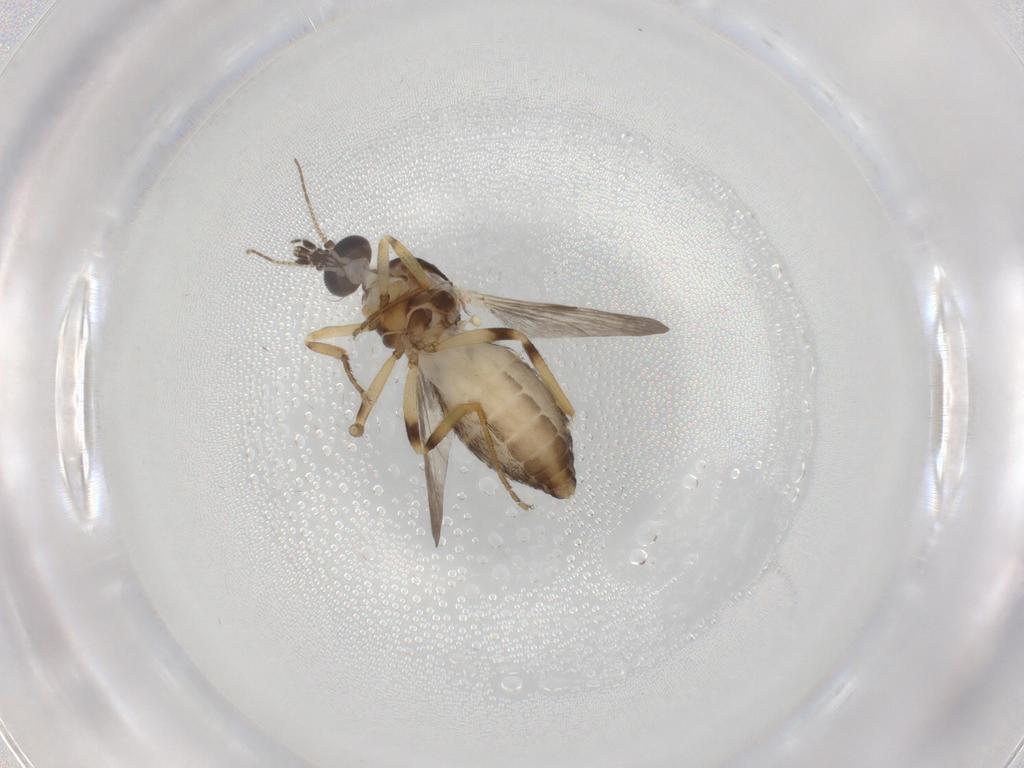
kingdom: Animalia
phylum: Arthropoda
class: Insecta
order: Diptera
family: Ceratopogonidae
